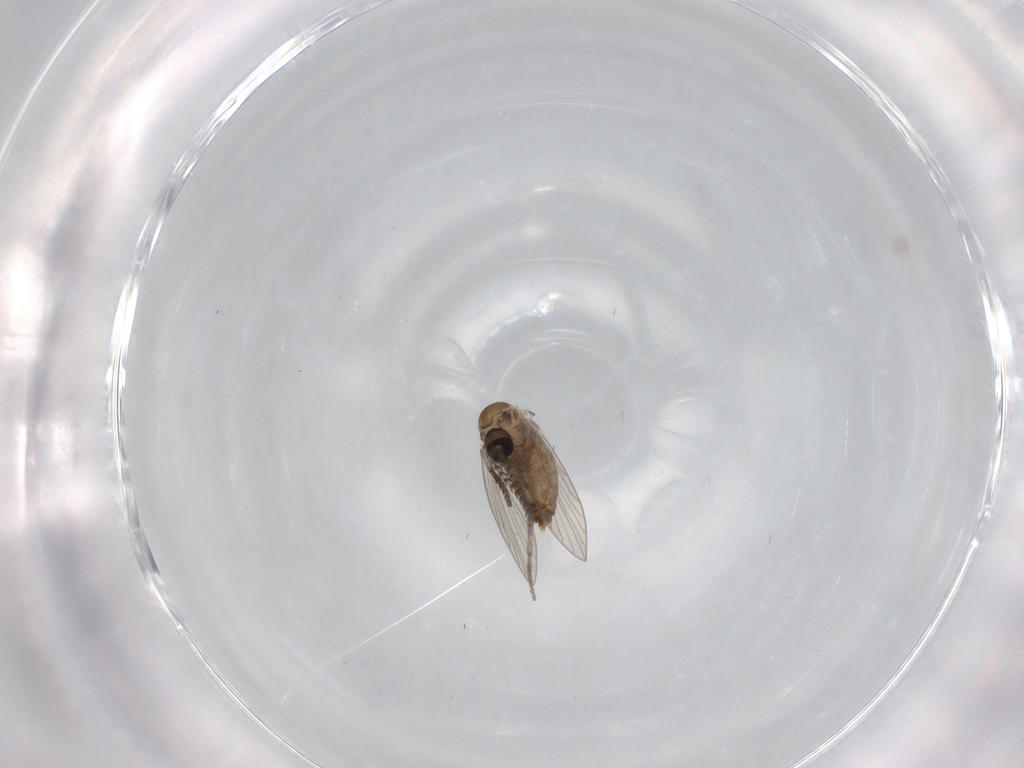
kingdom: Animalia
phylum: Arthropoda
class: Insecta
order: Diptera
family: Psychodidae
